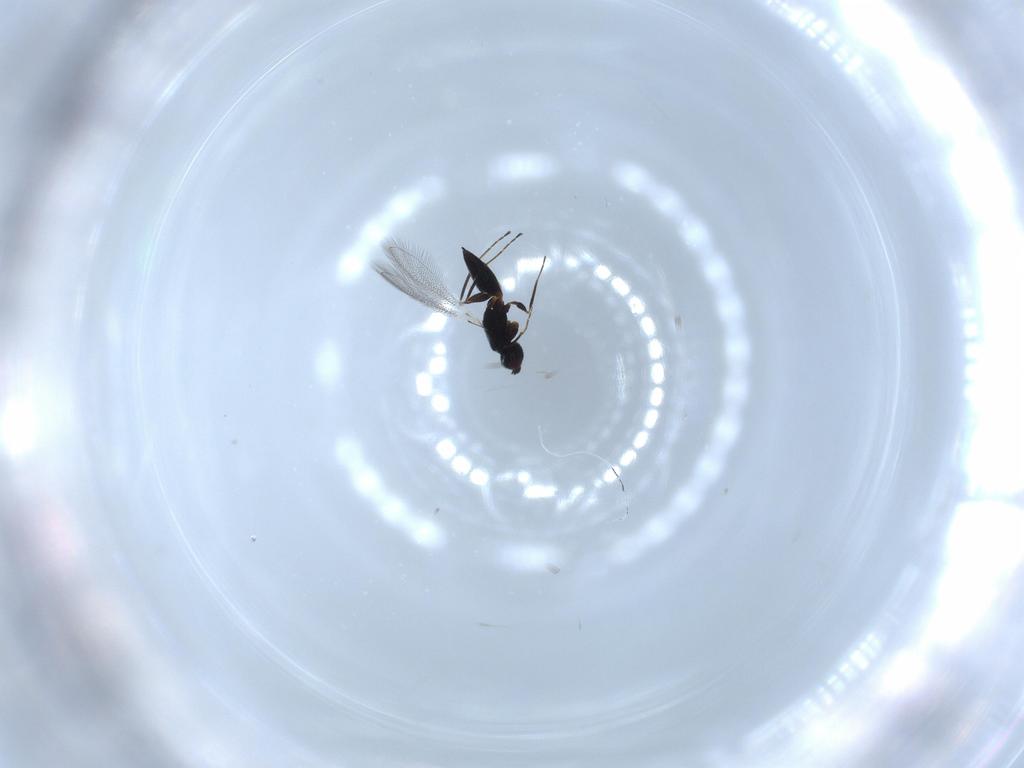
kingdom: Animalia
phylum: Arthropoda
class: Insecta
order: Hymenoptera
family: Mymaridae
